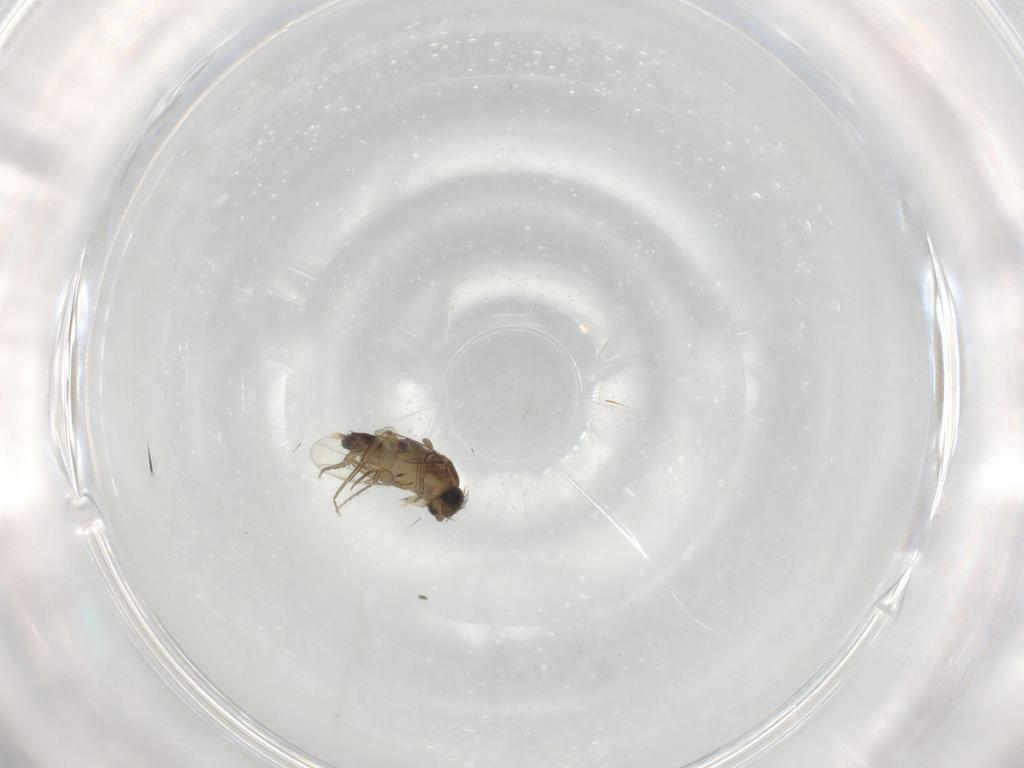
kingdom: Animalia
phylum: Arthropoda
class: Insecta
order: Diptera
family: Phoridae
